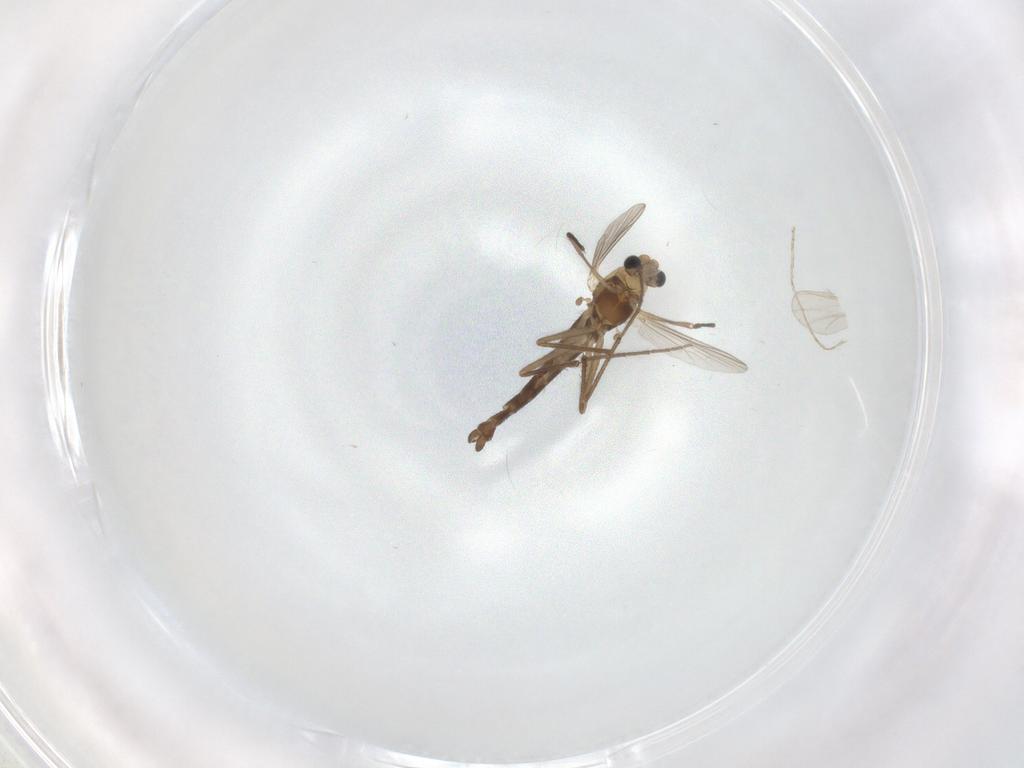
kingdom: Animalia
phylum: Arthropoda
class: Insecta
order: Diptera
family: Chironomidae
